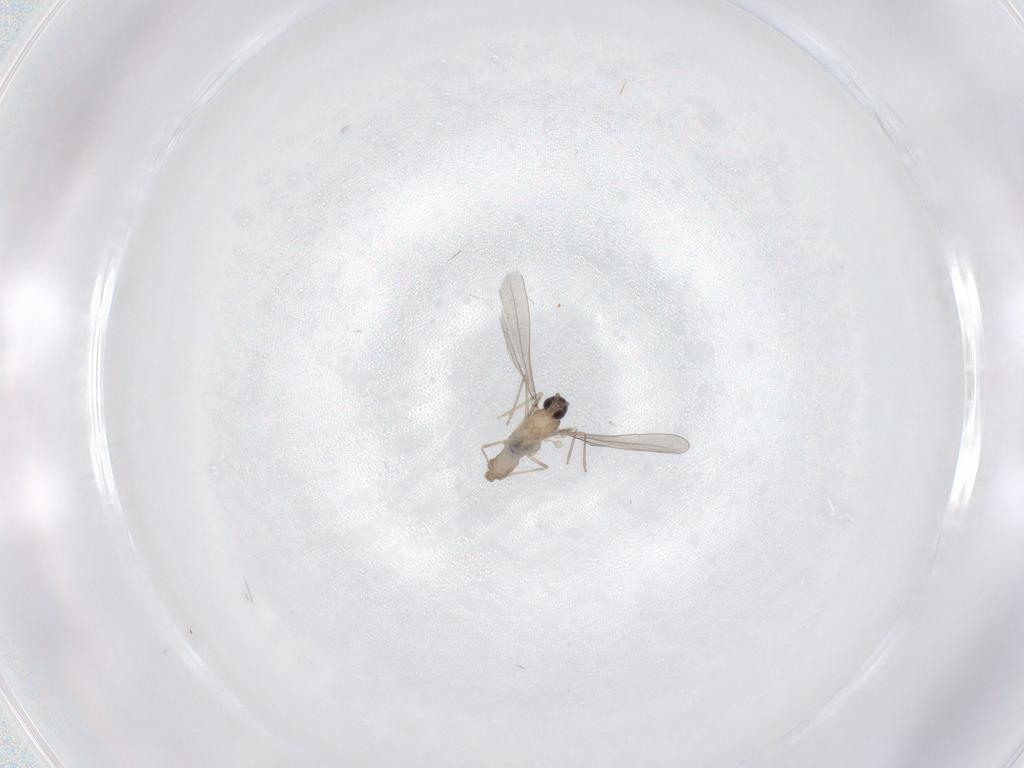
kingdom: Animalia
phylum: Arthropoda
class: Insecta
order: Diptera
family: Cecidomyiidae
